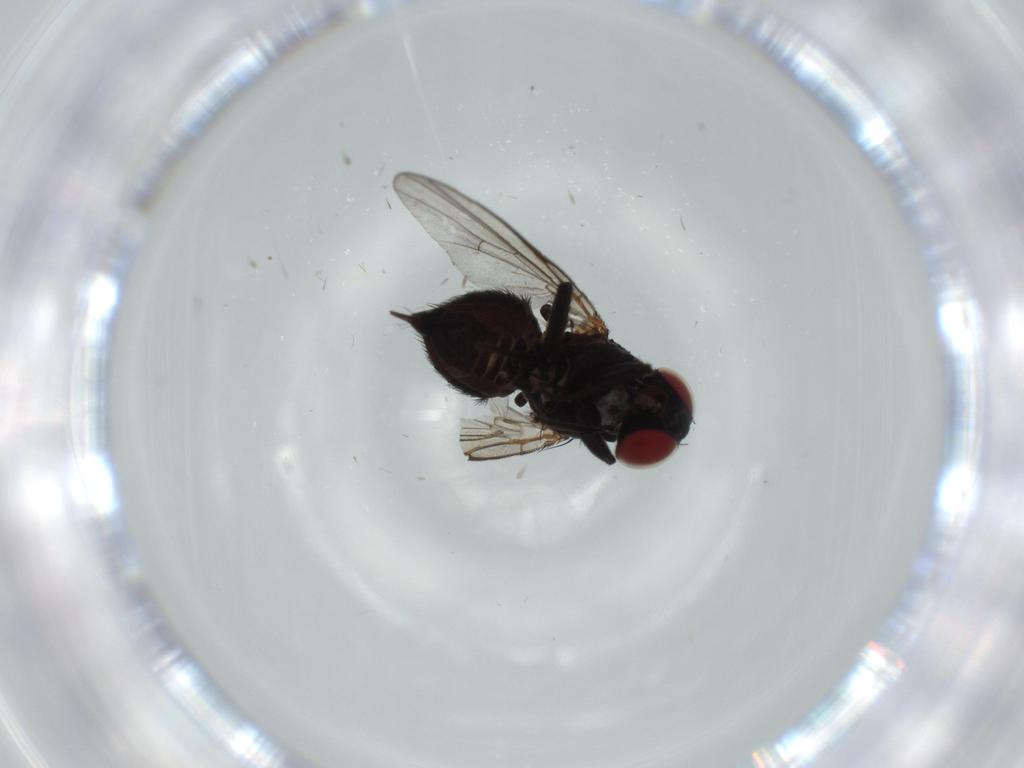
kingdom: Animalia
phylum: Arthropoda
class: Insecta
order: Diptera
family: Agromyzidae
